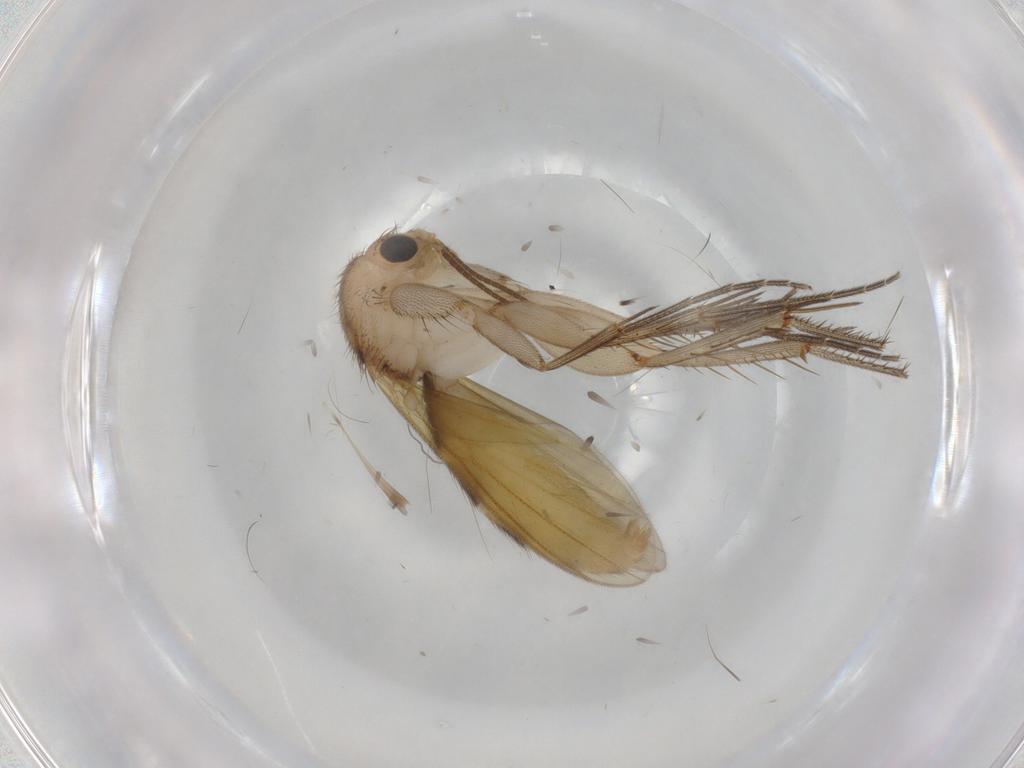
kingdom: Animalia
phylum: Arthropoda
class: Insecta
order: Diptera
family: Mycetophilidae
